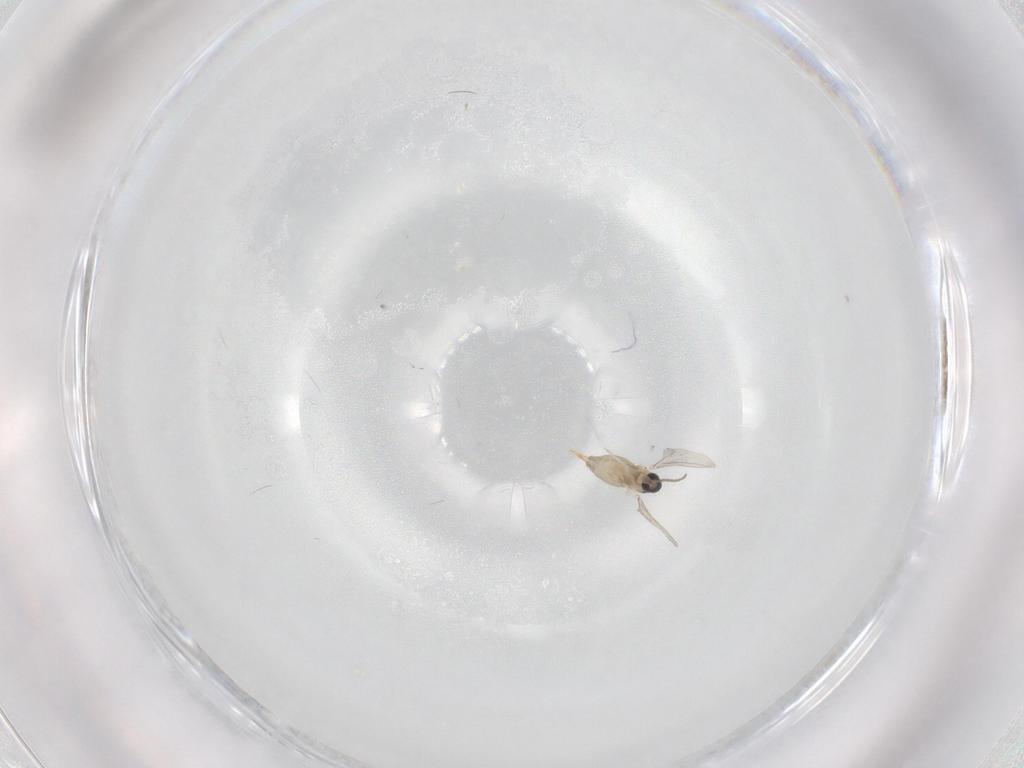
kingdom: Animalia
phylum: Arthropoda
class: Insecta
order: Diptera
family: Cecidomyiidae
